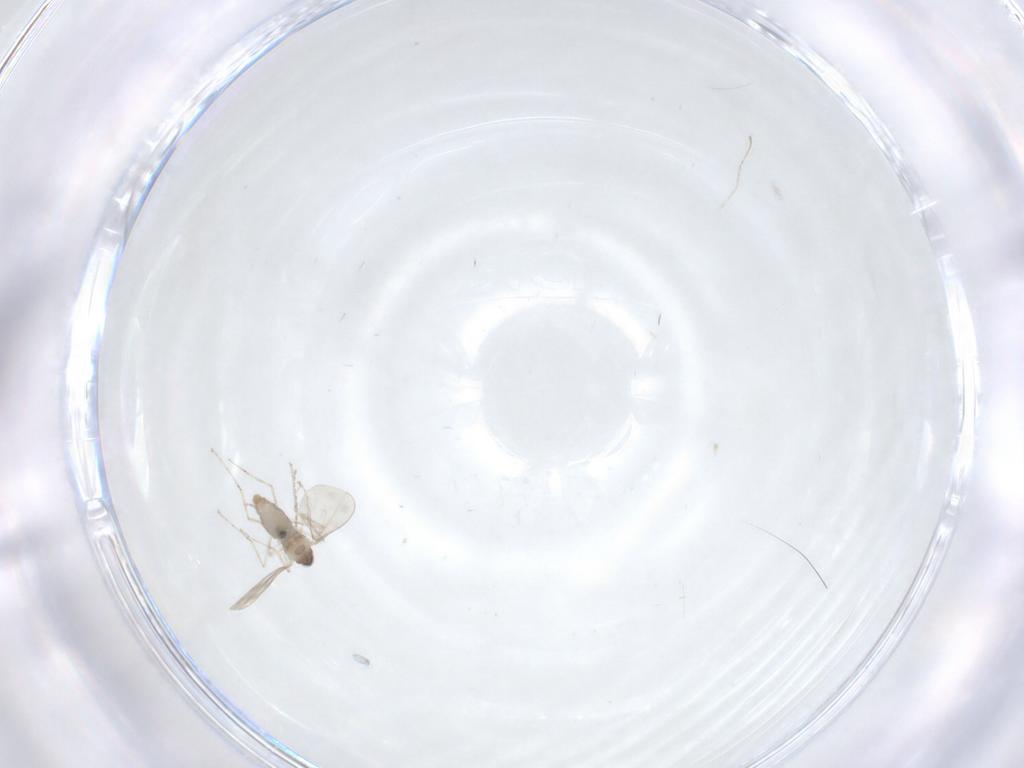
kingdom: Animalia
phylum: Arthropoda
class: Insecta
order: Diptera
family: Cecidomyiidae
